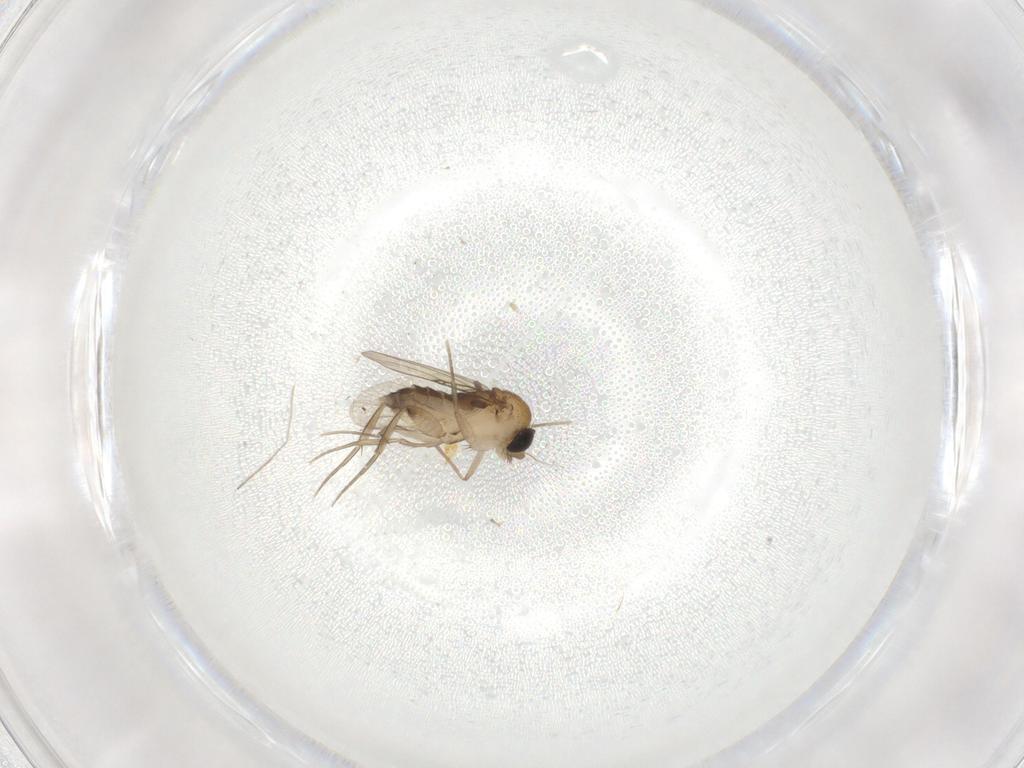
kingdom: Animalia
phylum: Arthropoda
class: Insecta
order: Diptera
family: Phoridae
